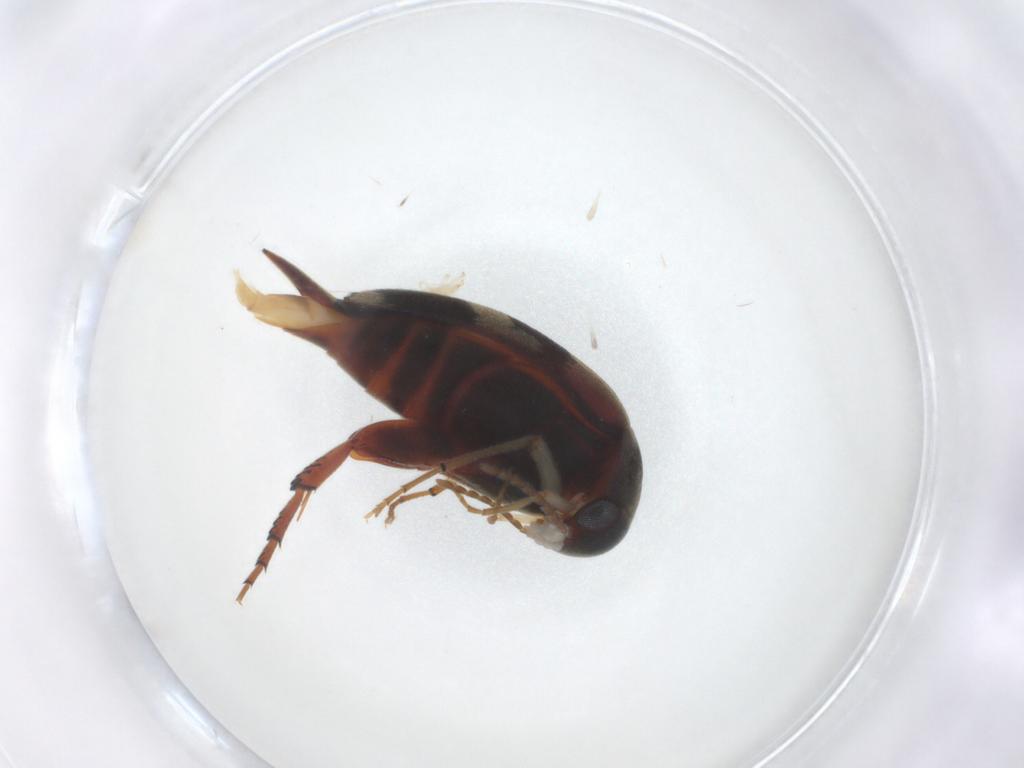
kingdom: Animalia
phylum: Arthropoda
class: Insecta
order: Coleoptera
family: Mordellidae
